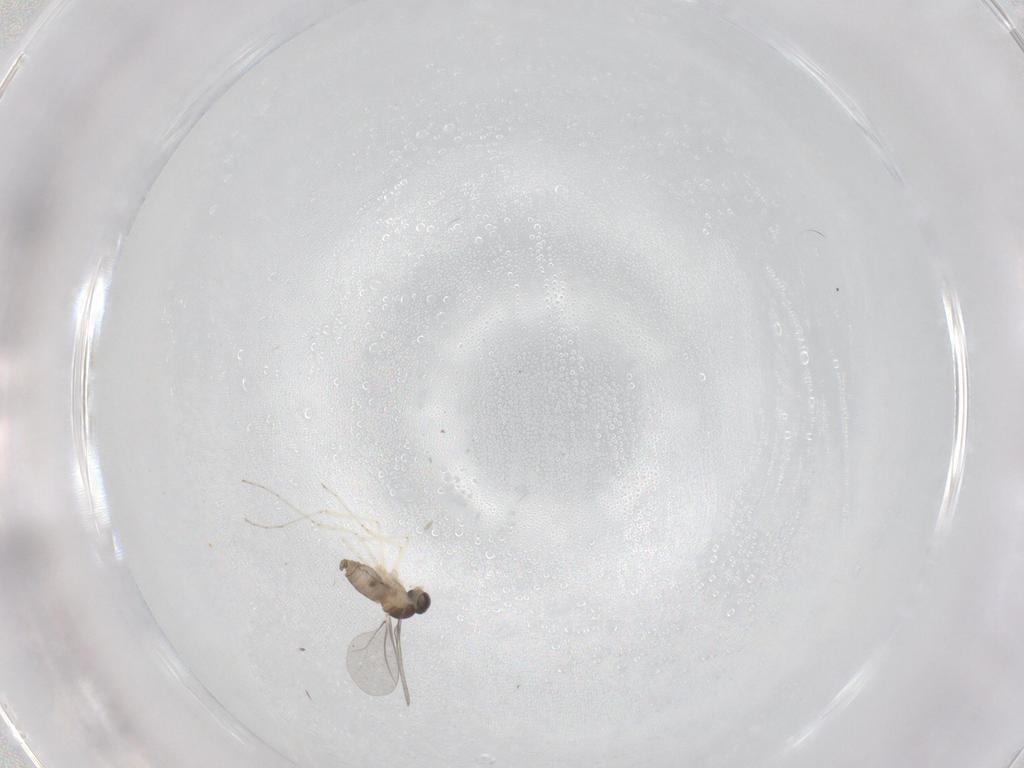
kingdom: Animalia
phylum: Arthropoda
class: Insecta
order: Diptera
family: Cecidomyiidae
